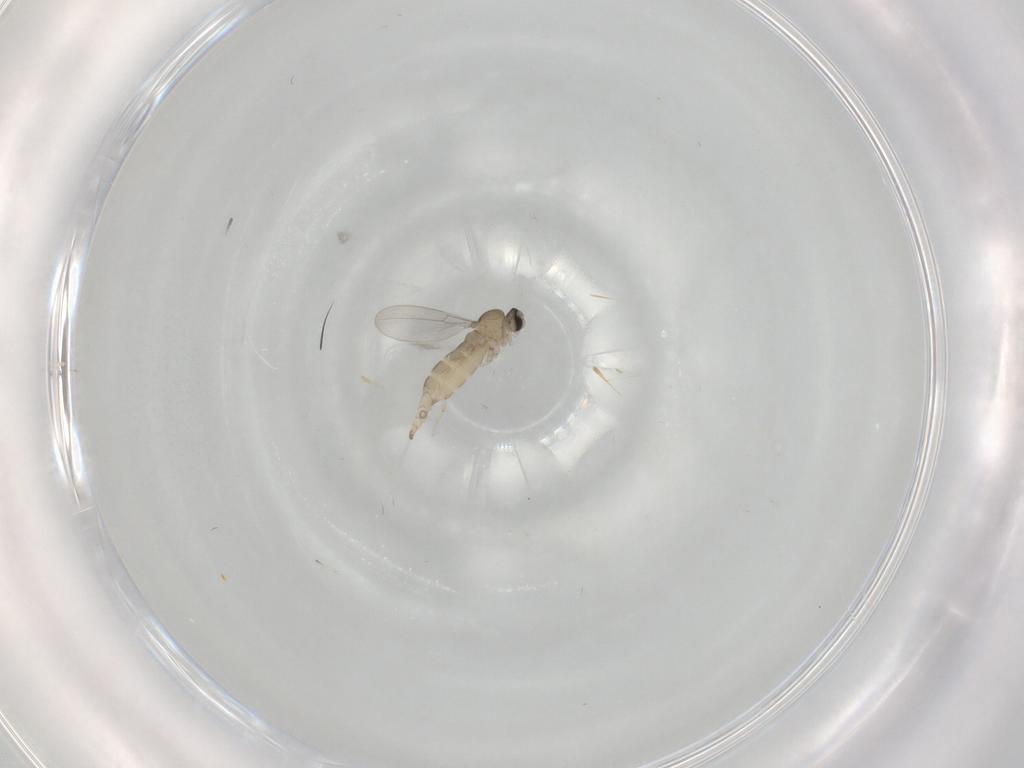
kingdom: Animalia
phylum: Arthropoda
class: Insecta
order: Diptera
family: Cecidomyiidae
